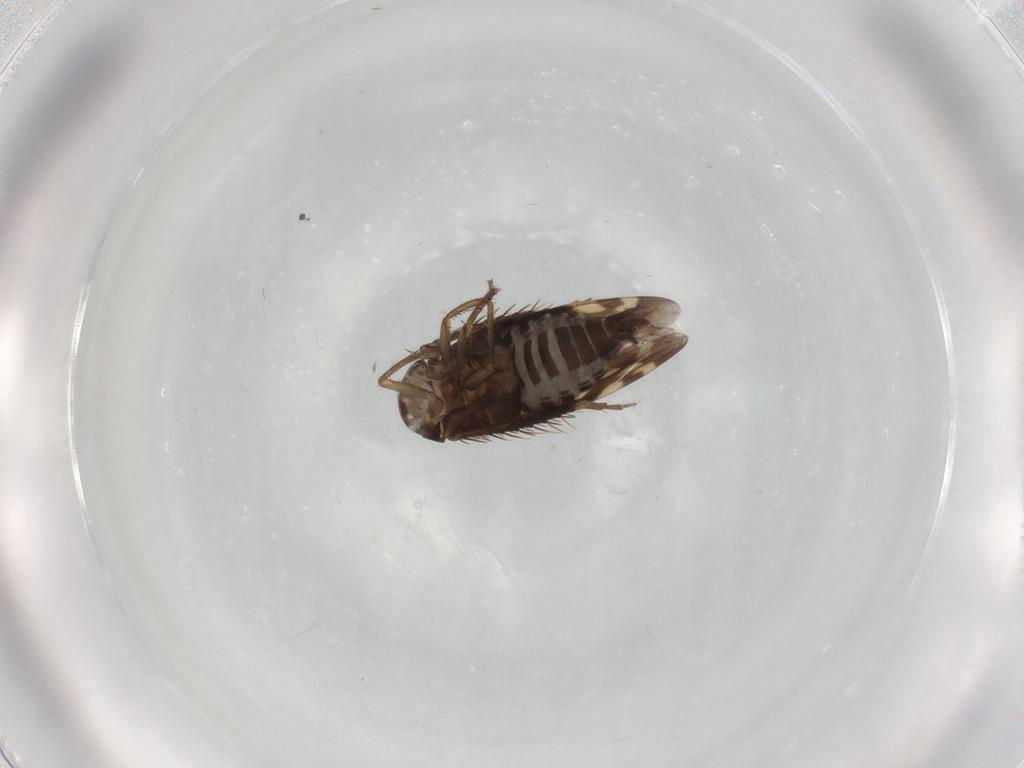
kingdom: Animalia
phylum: Arthropoda
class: Insecta
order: Hemiptera
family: Cicadellidae
